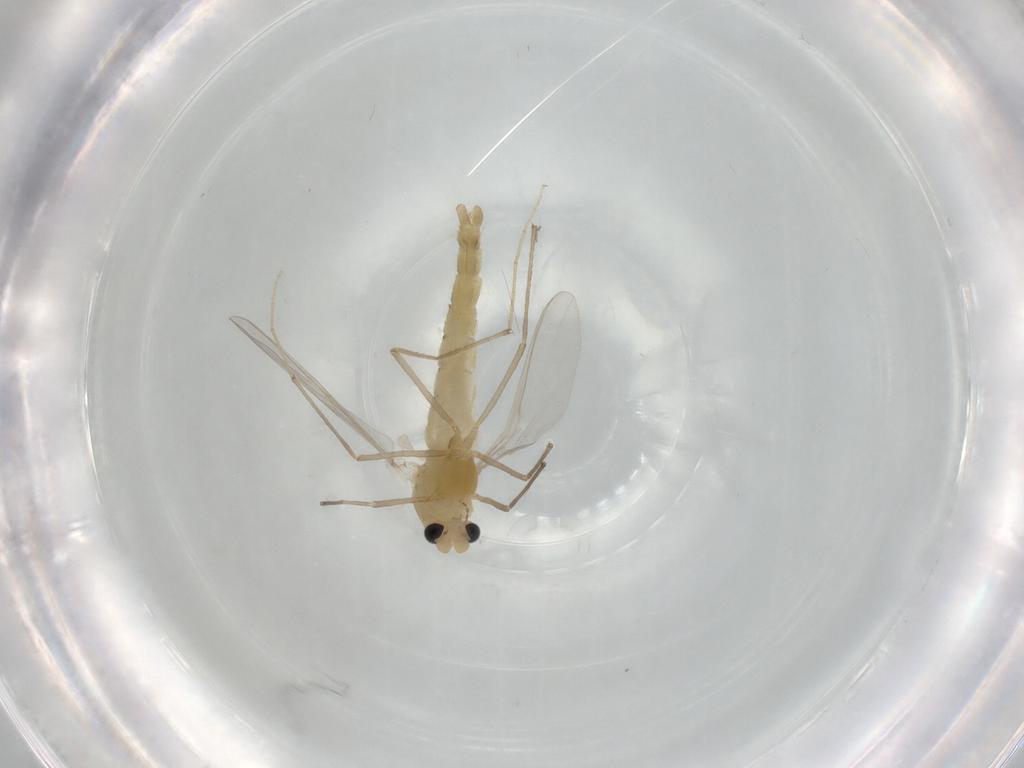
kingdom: Animalia
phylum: Arthropoda
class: Insecta
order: Diptera
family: Chironomidae
